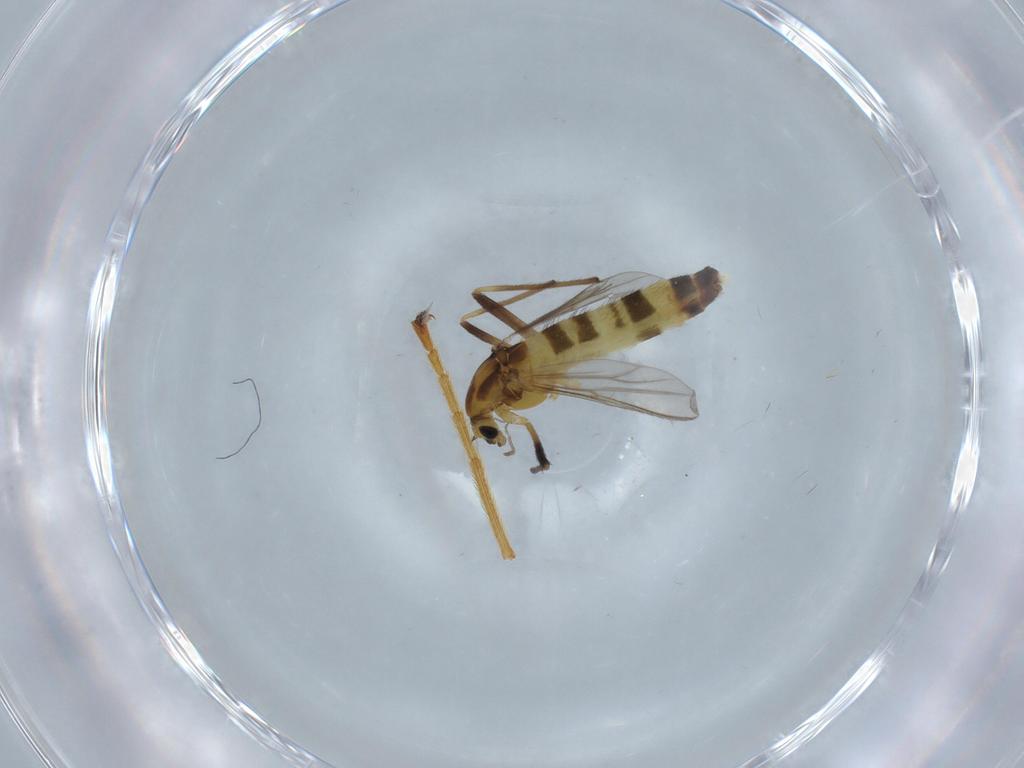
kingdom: Animalia
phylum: Arthropoda
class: Insecta
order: Diptera
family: Chironomidae
